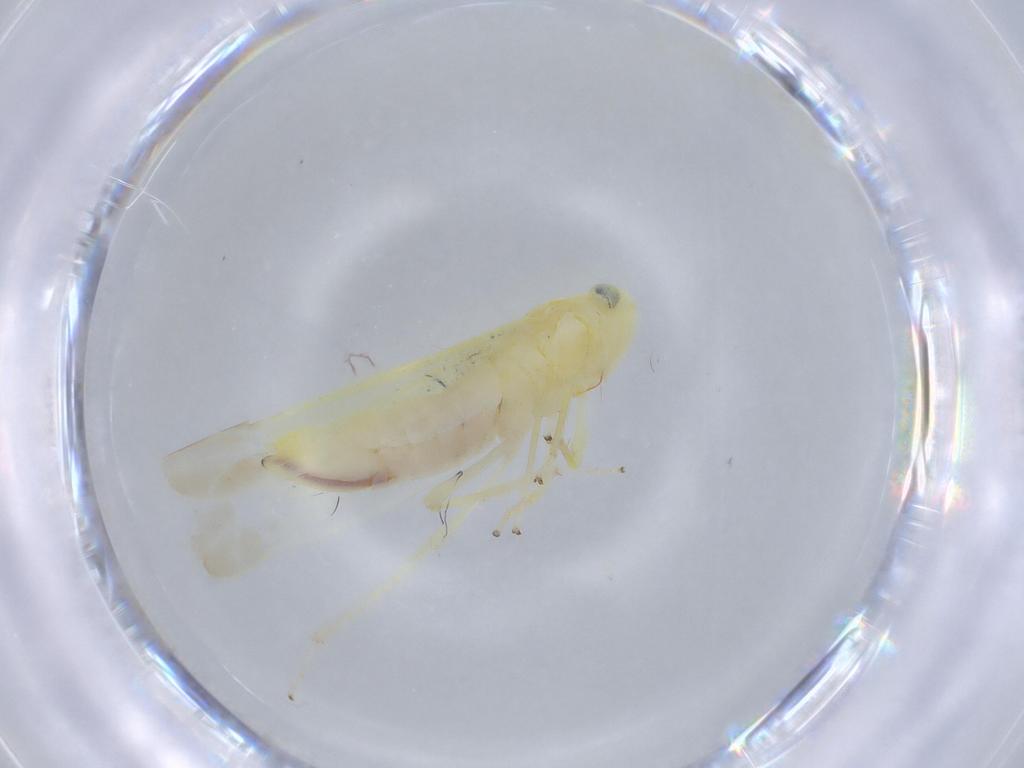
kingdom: Animalia
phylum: Arthropoda
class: Insecta
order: Hemiptera
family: Cicadellidae
